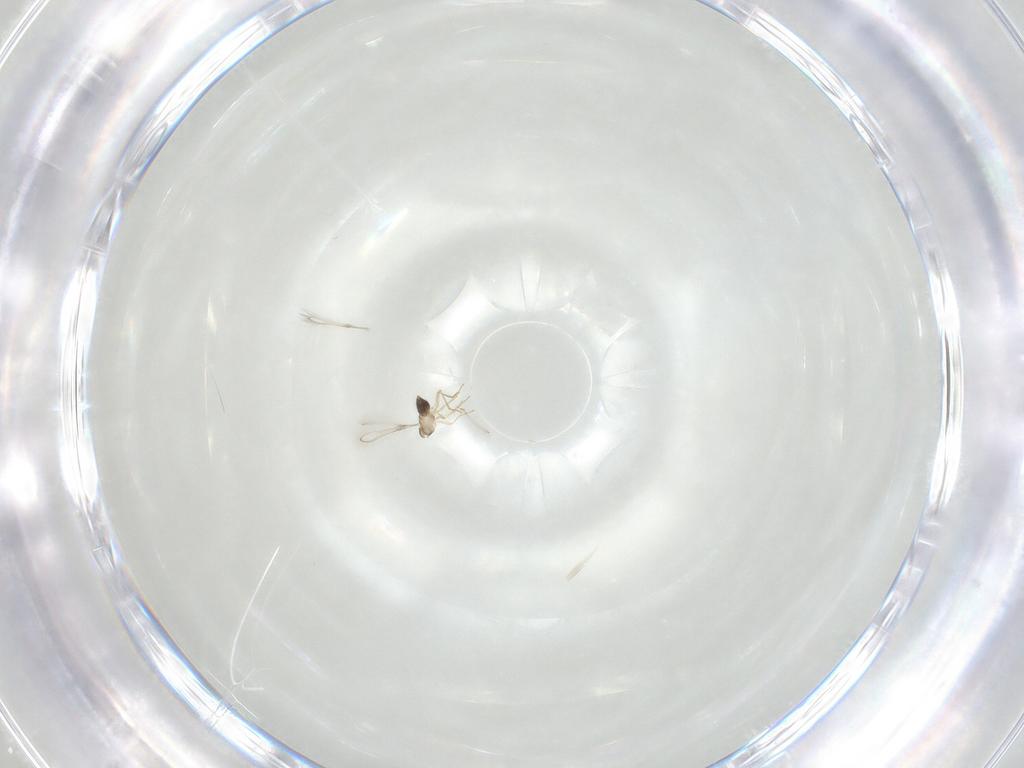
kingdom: Animalia
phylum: Arthropoda
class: Insecta
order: Hymenoptera
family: Mymaridae
